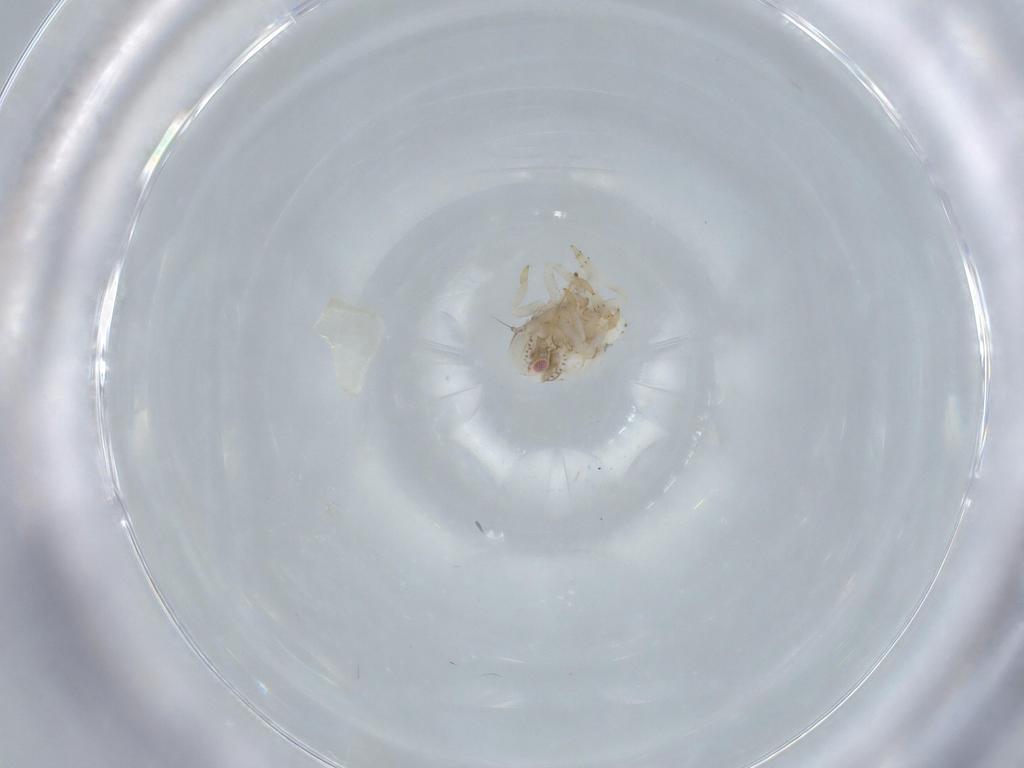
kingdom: Animalia
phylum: Arthropoda
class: Insecta
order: Hemiptera
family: Acanaloniidae
